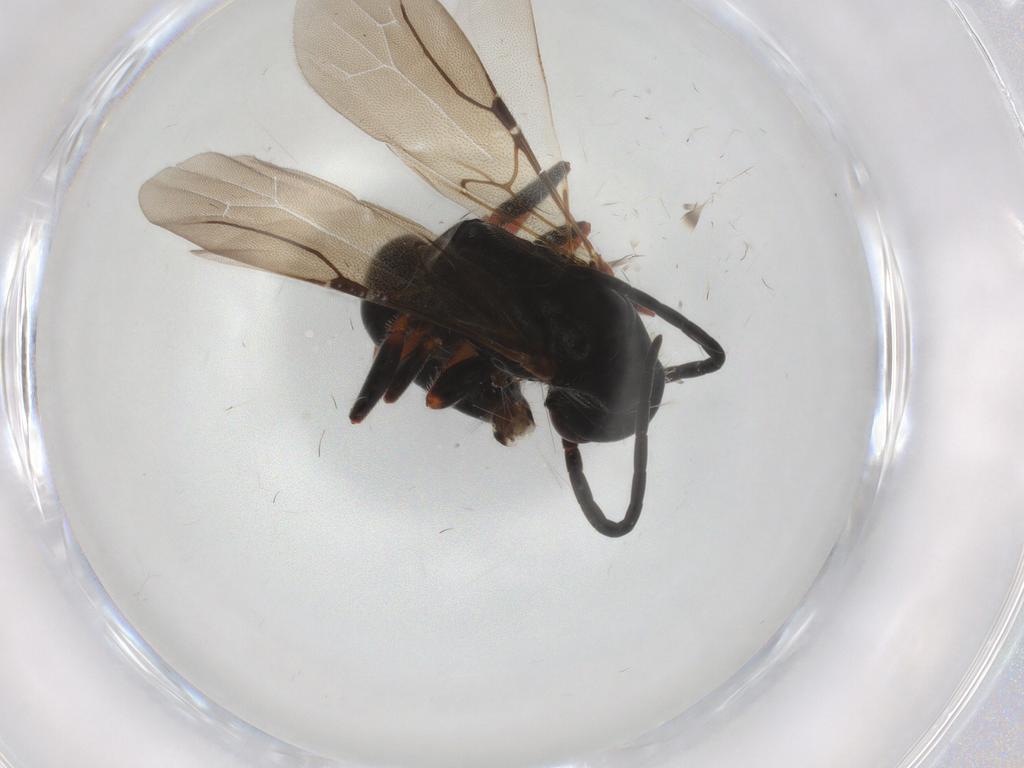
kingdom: Animalia
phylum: Arthropoda
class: Insecta
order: Hymenoptera
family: Bethylidae
